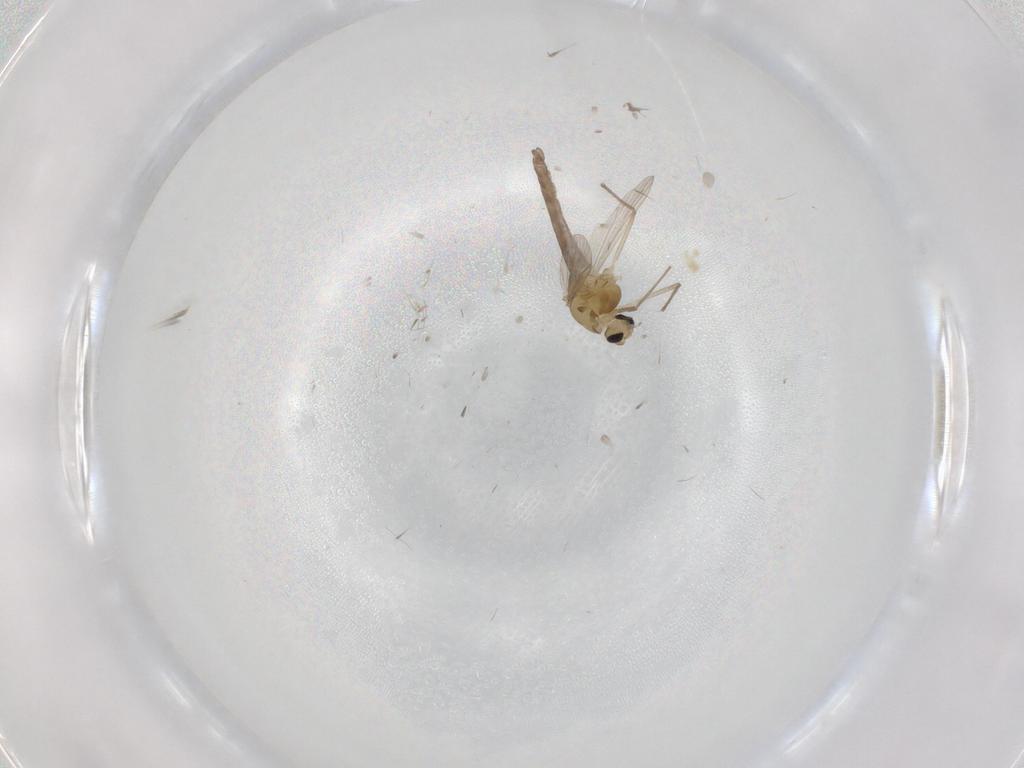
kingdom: Animalia
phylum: Arthropoda
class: Insecta
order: Diptera
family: Chironomidae
